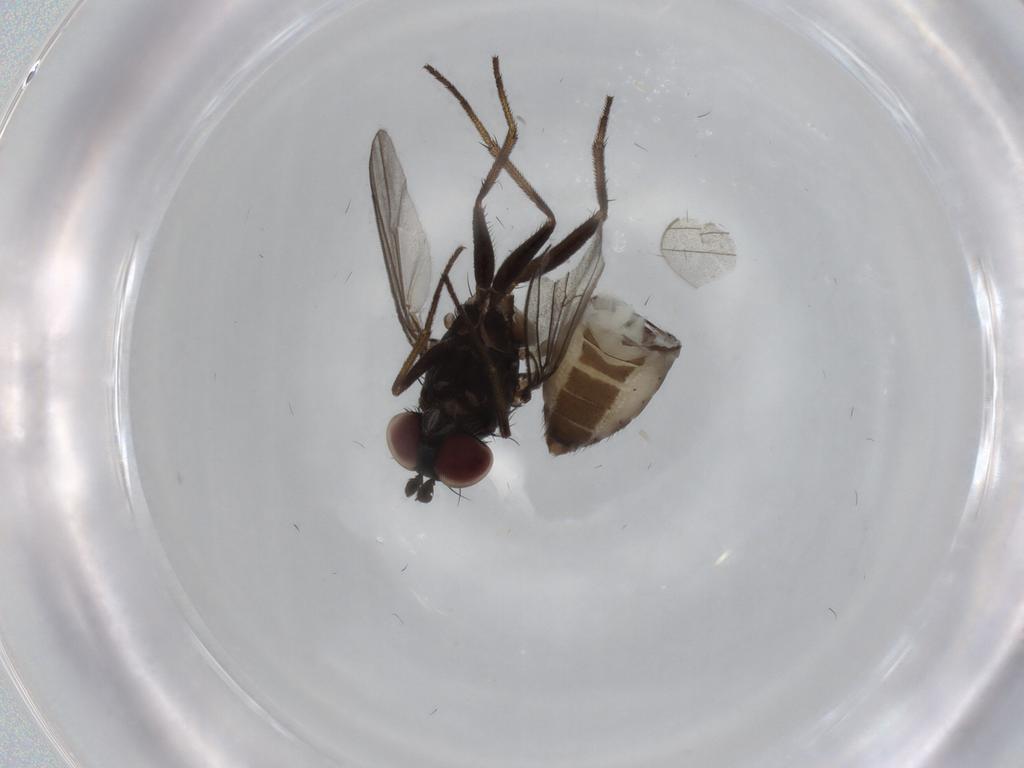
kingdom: Animalia
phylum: Arthropoda
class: Insecta
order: Diptera
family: Dolichopodidae
